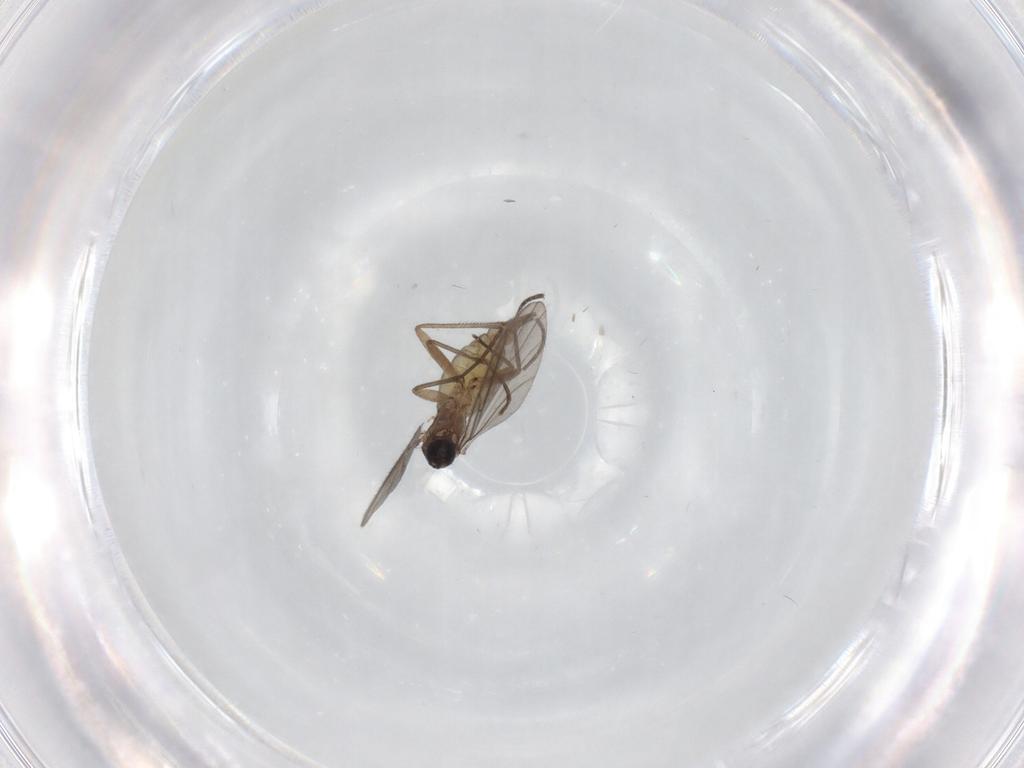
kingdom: Animalia
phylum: Arthropoda
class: Insecta
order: Diptera
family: Sciaridae
